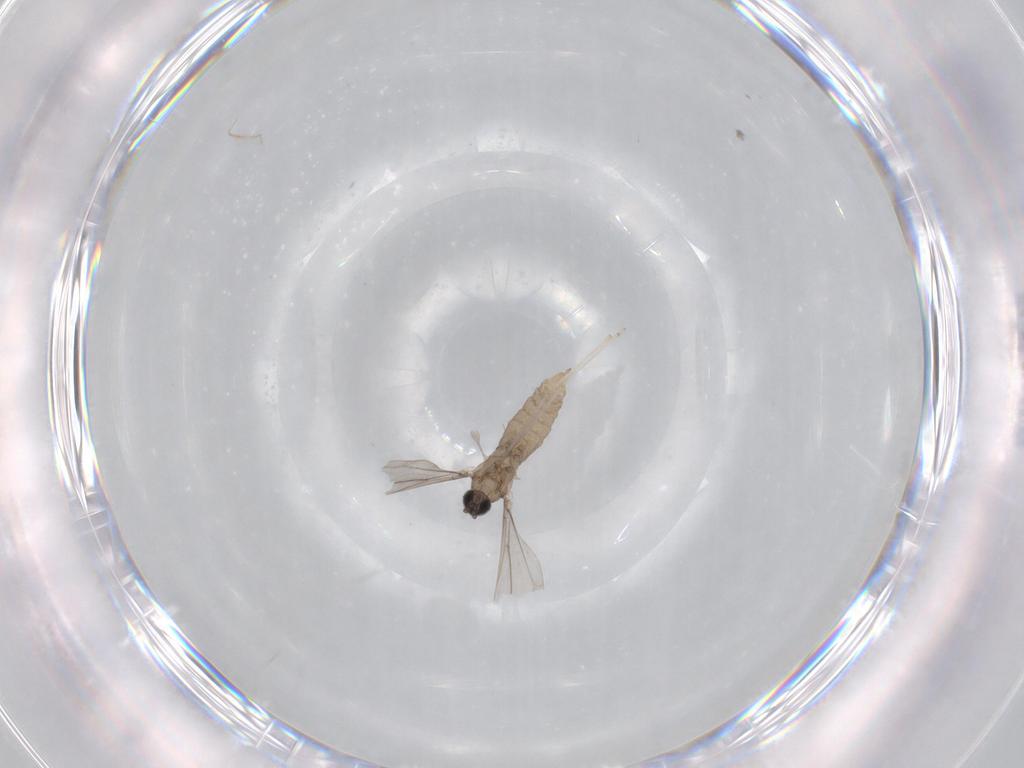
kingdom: Animalia
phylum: Arthropoda
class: Insecta
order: Diptera
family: Cecidomyiidae
